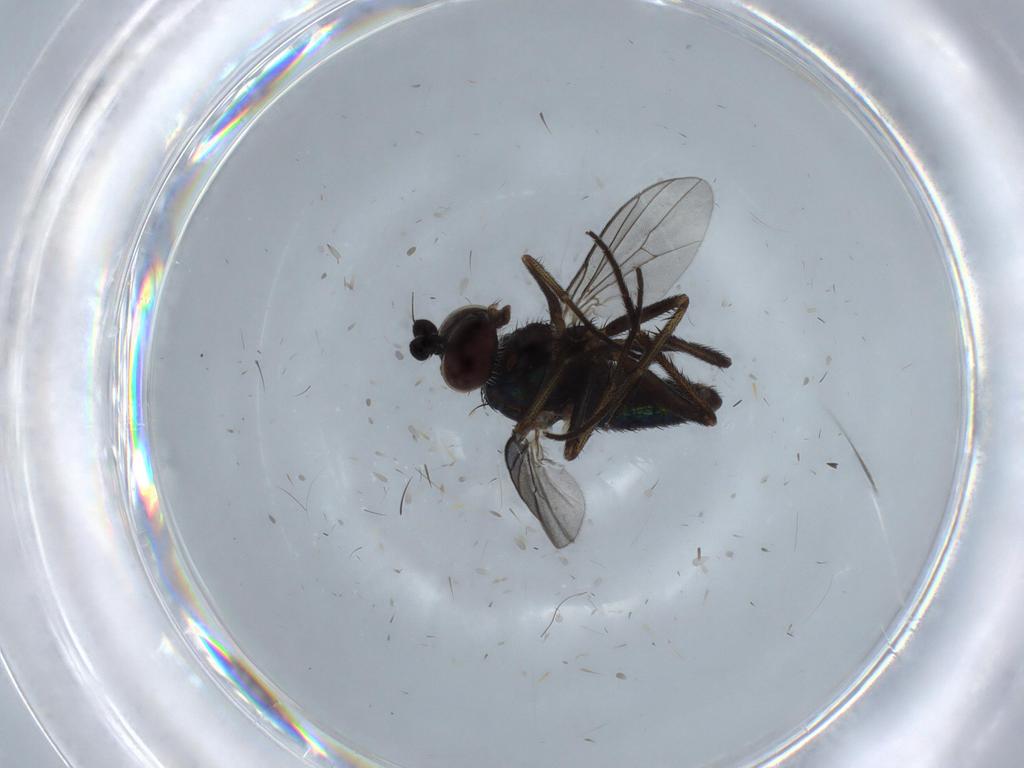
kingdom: Animalia
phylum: Arthropoda
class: Insecta
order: Diptera
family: Dolichopodidae
